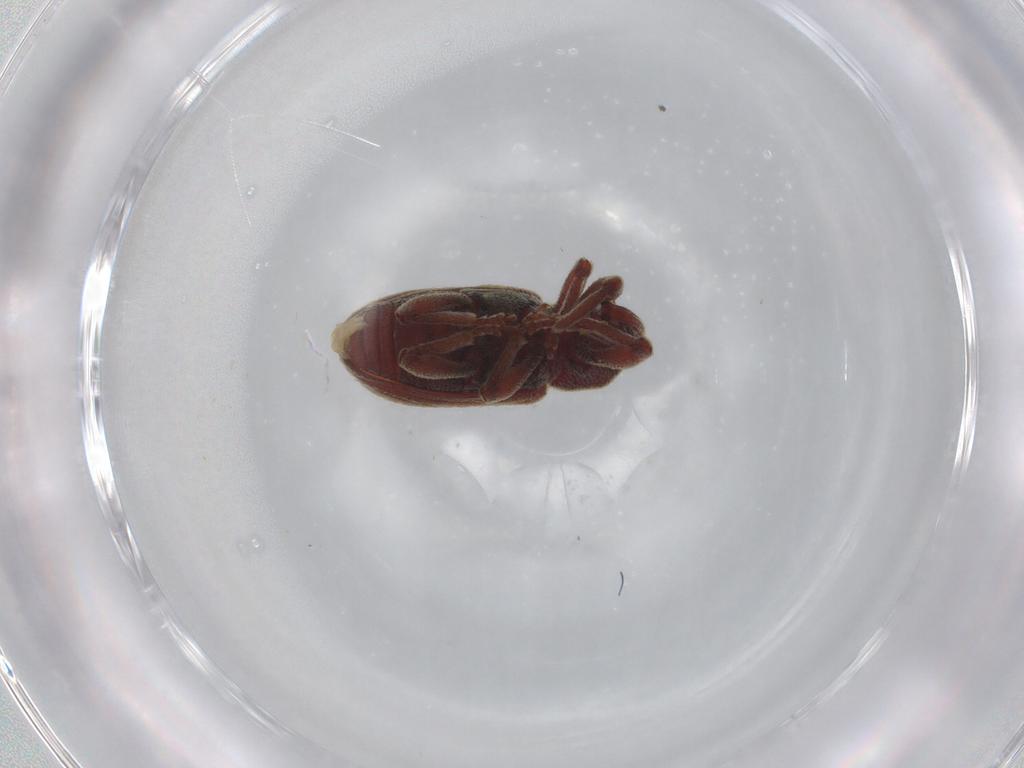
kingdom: Animalia
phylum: Arthropoda
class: Insecta
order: Coleoptera
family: Curculionidae
